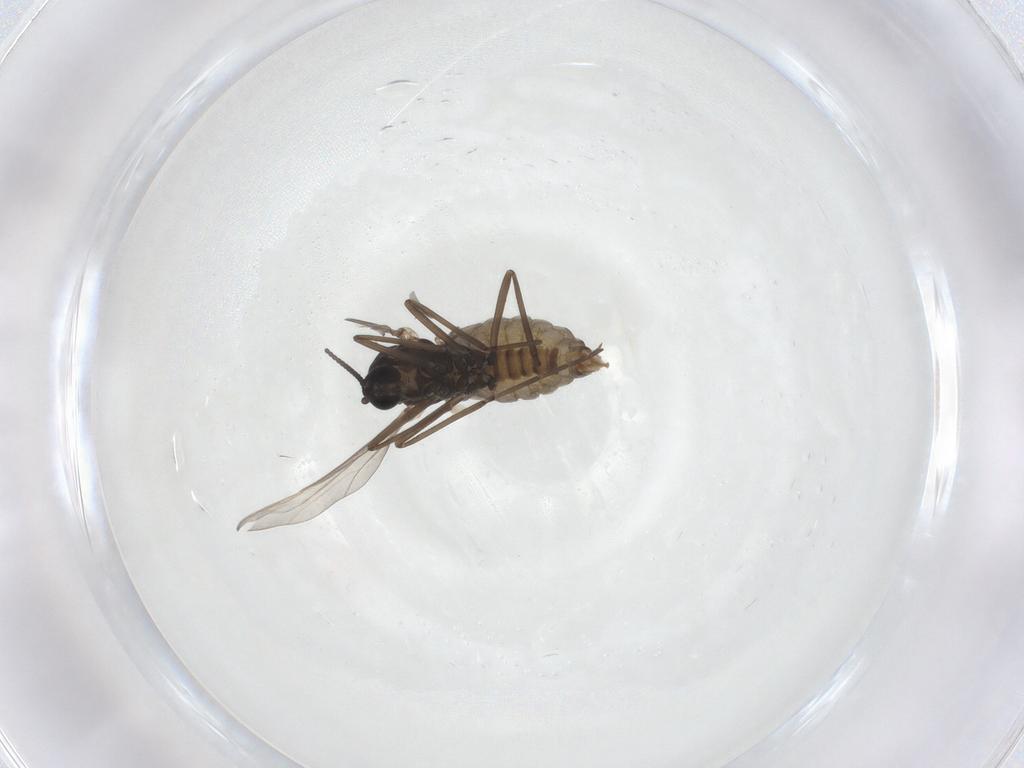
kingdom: Animalia
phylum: Arthropoda
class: Insecta
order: Diptera
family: Cecidomyiidae
